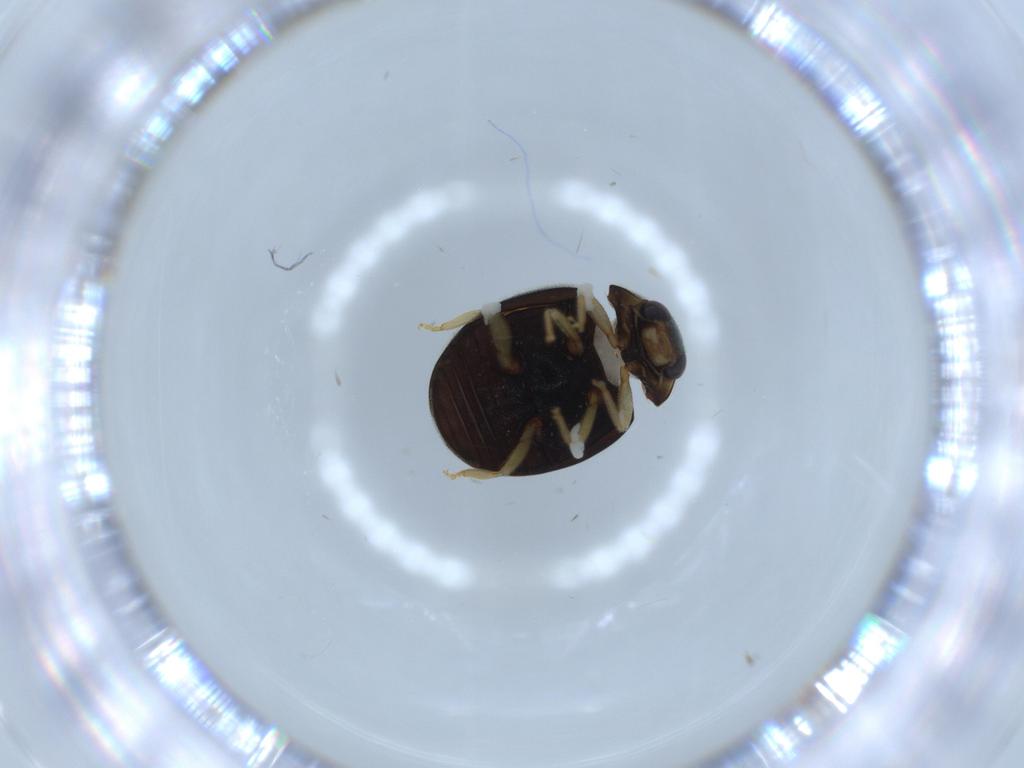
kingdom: Animalia
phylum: Arthropoda
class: Insecta
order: Coleoptera
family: Coccinellidae
